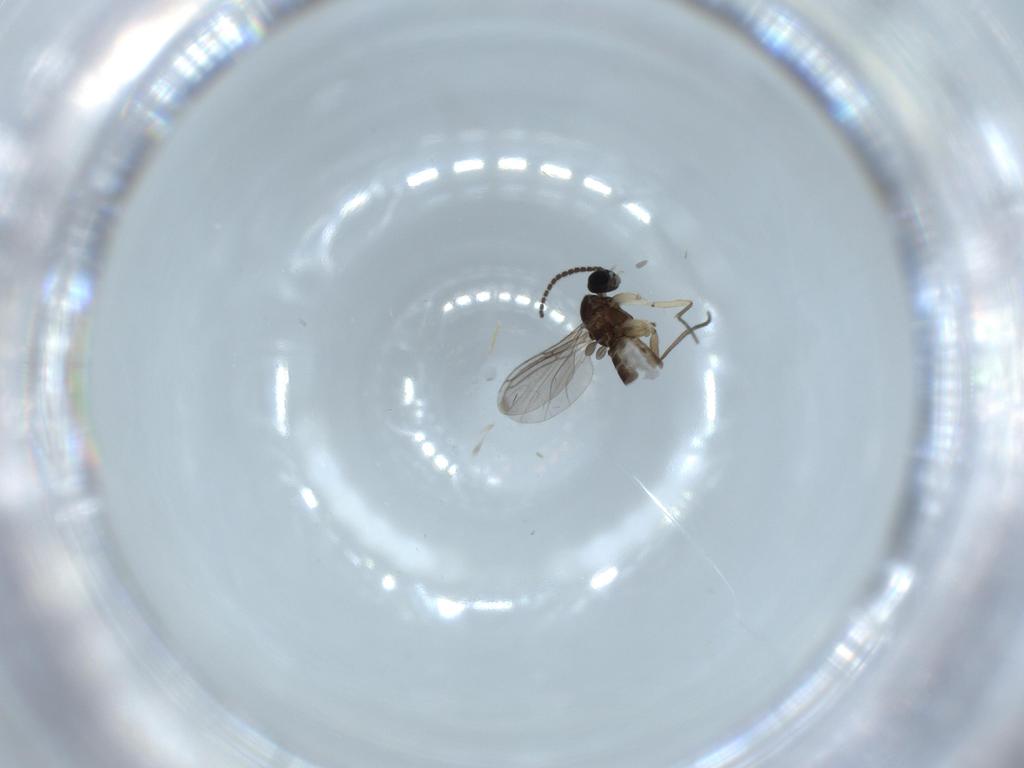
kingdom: Animalia
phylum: Arthropoda
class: Insecta
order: Diptera
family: Sciaridae
